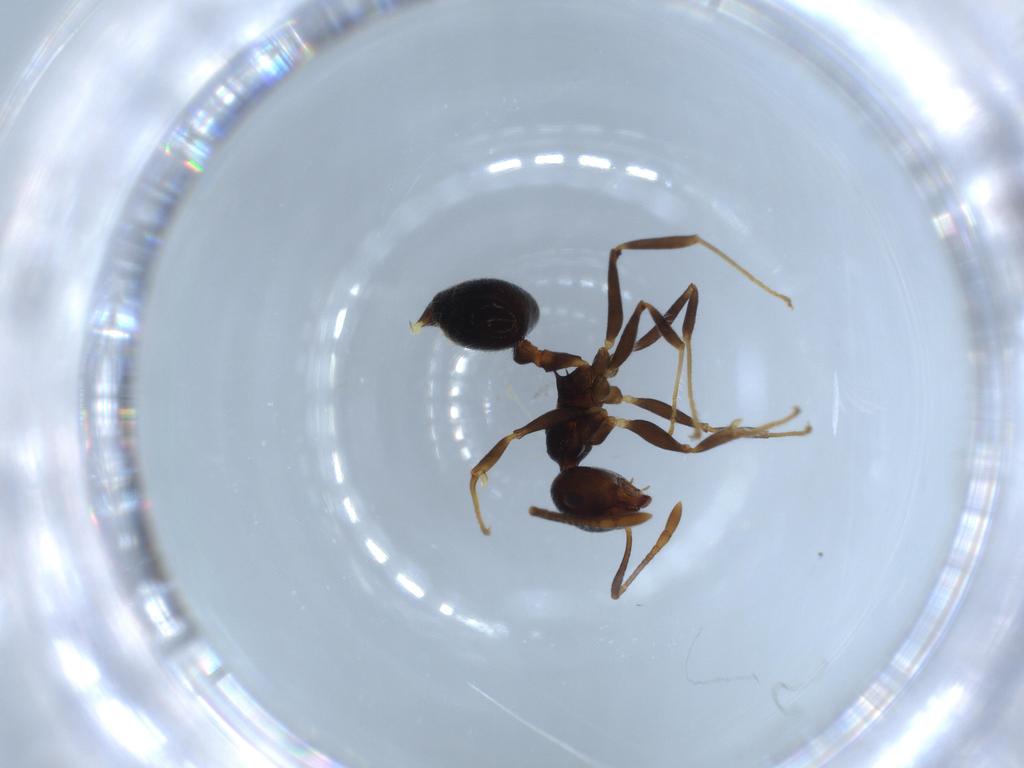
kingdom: Animalia
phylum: Arthropoda
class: Insecta
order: Hymenoptera
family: Formicidae
